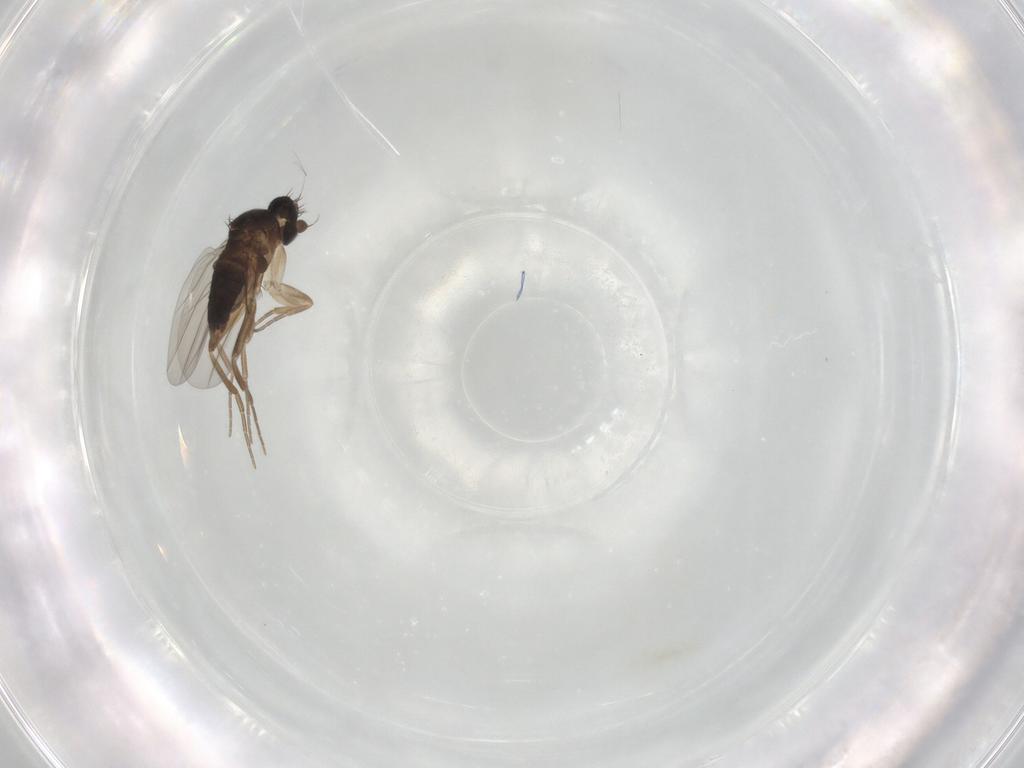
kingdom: Animalia
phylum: Arthropoda
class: Insecta
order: Diptera
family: Phoridae
